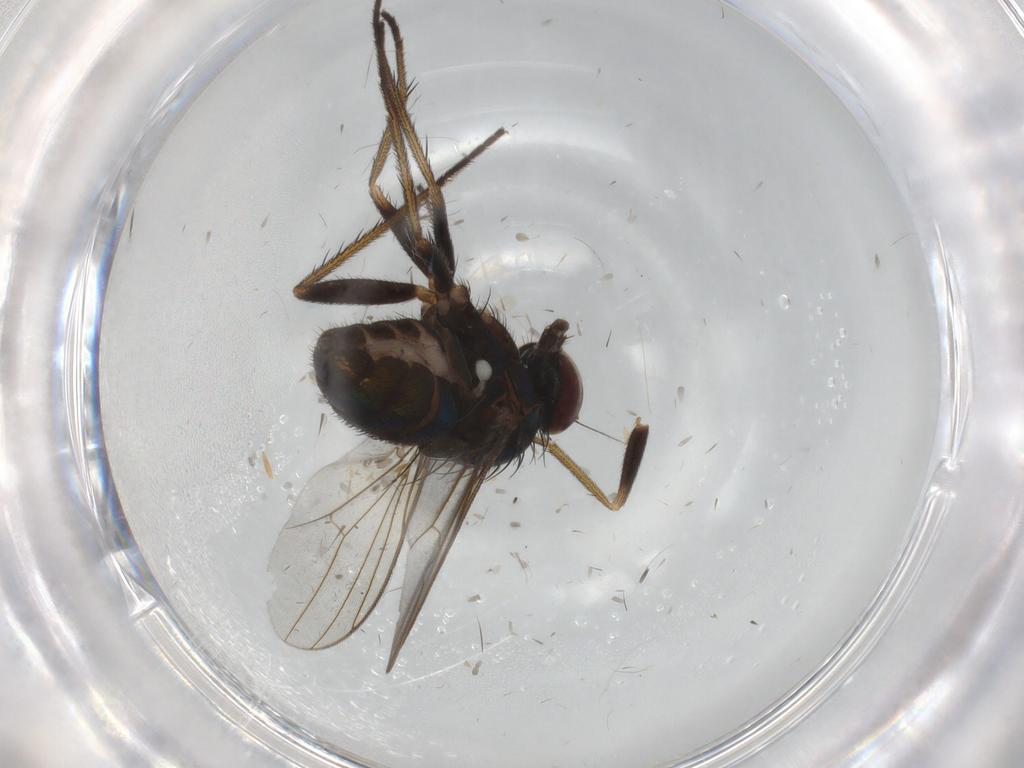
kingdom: Animalia
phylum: Arthropoda
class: Insecta
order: Diptera
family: Dolichopodidae
